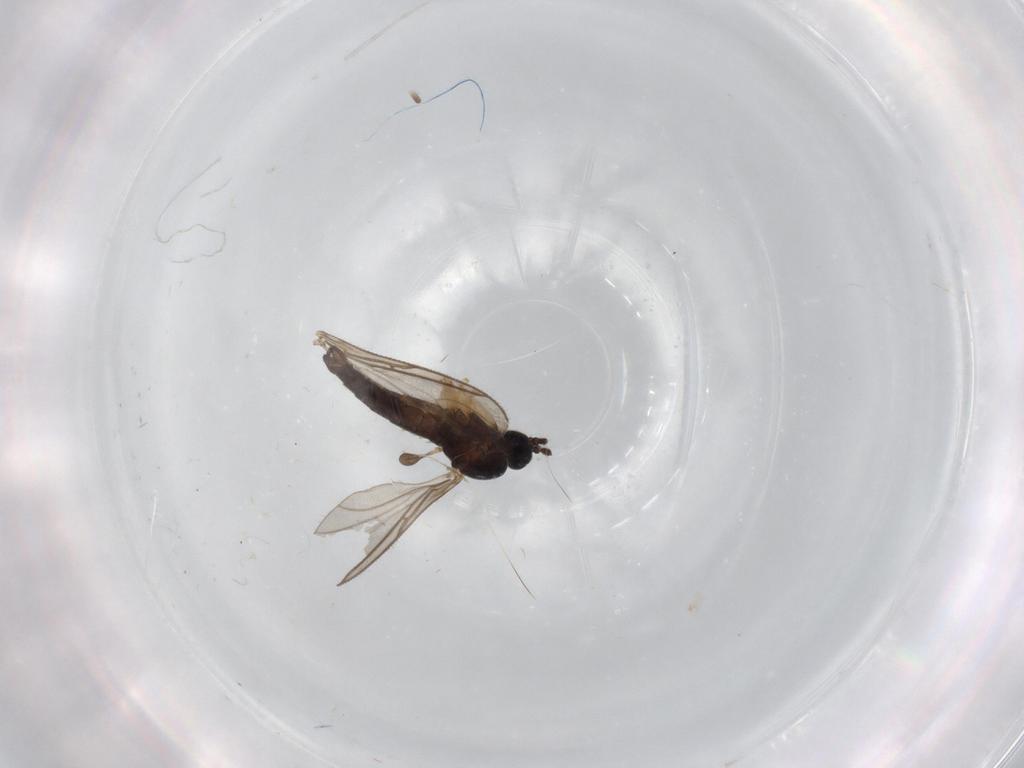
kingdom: Animalia
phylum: Arthropoda
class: Insecta
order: Diptera
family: Sciaridae
